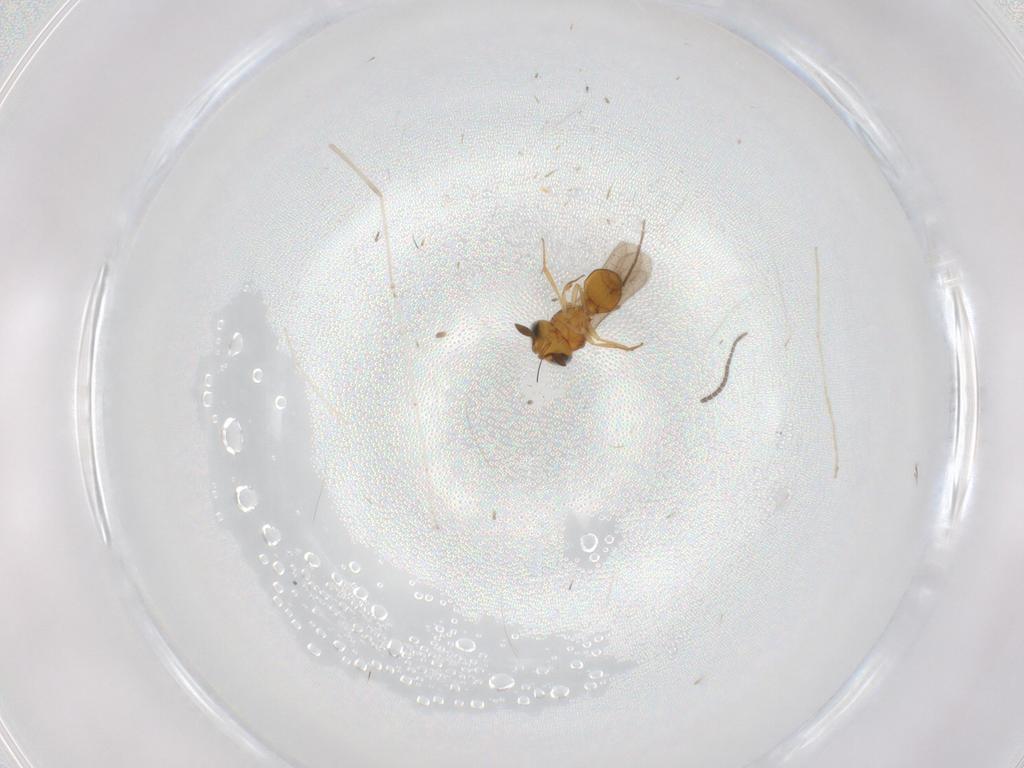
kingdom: Animalia
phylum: Arthropoda
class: Insecta
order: Hymenoptera
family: Scelionidae
